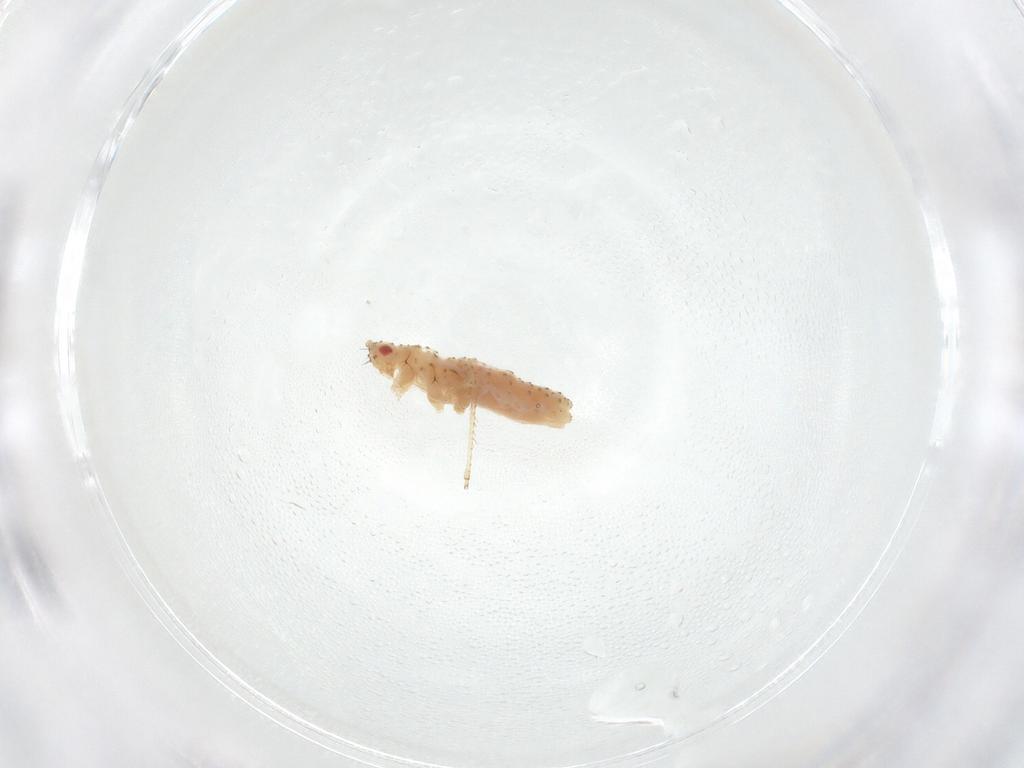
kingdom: Animalia
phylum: Arthropoda
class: Insecta
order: Hemiptera
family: Aphididae
